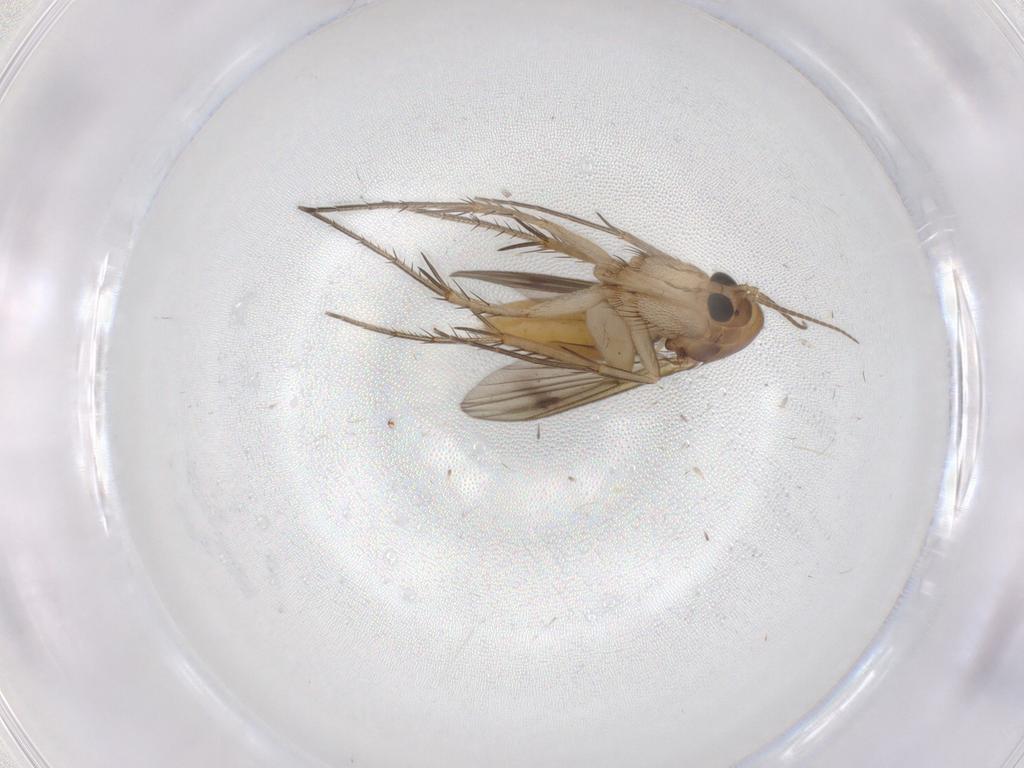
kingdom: Animalia
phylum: Arthropoda
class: Insecta
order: Diptera
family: Mycetophilidae
